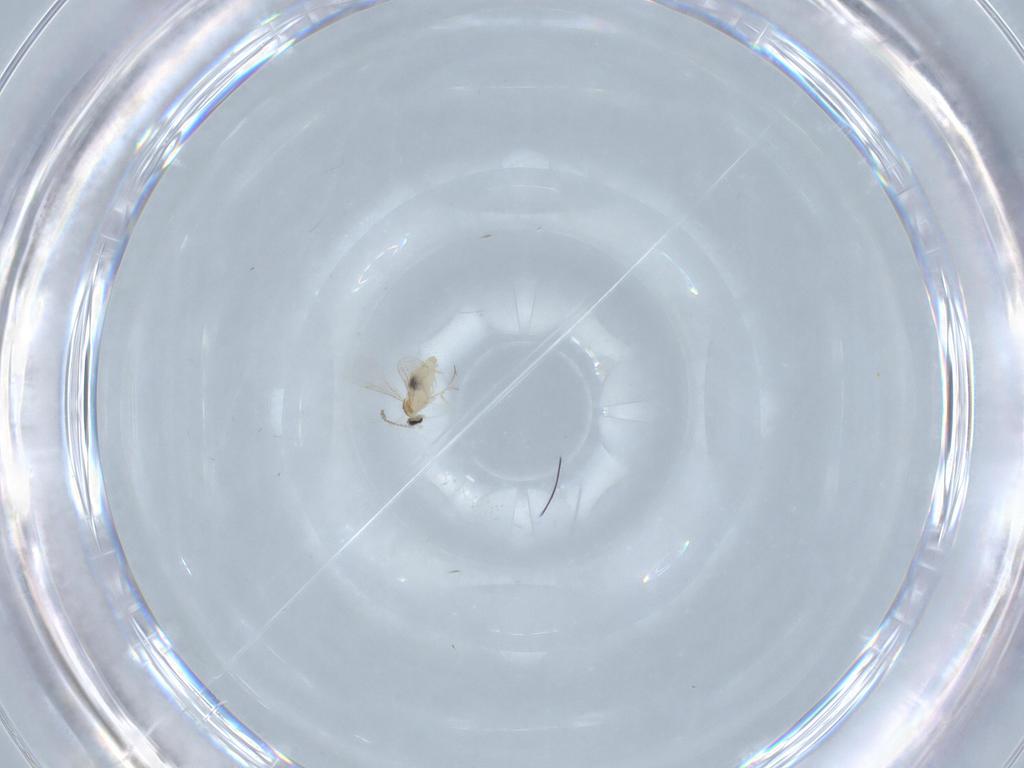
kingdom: Animalia
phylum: Arthropoda
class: Insecta
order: Diptera
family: Cecidomyiidae
